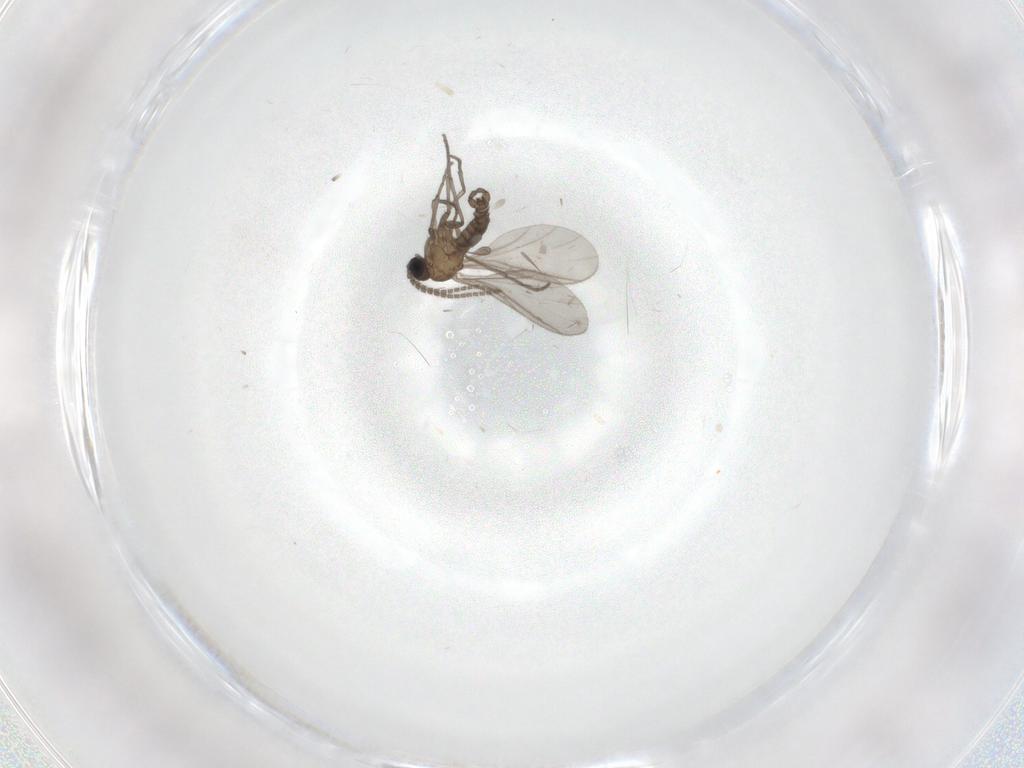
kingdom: Animalia
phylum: Arthropoda
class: Insecta
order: Diptera
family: Sciaridae
